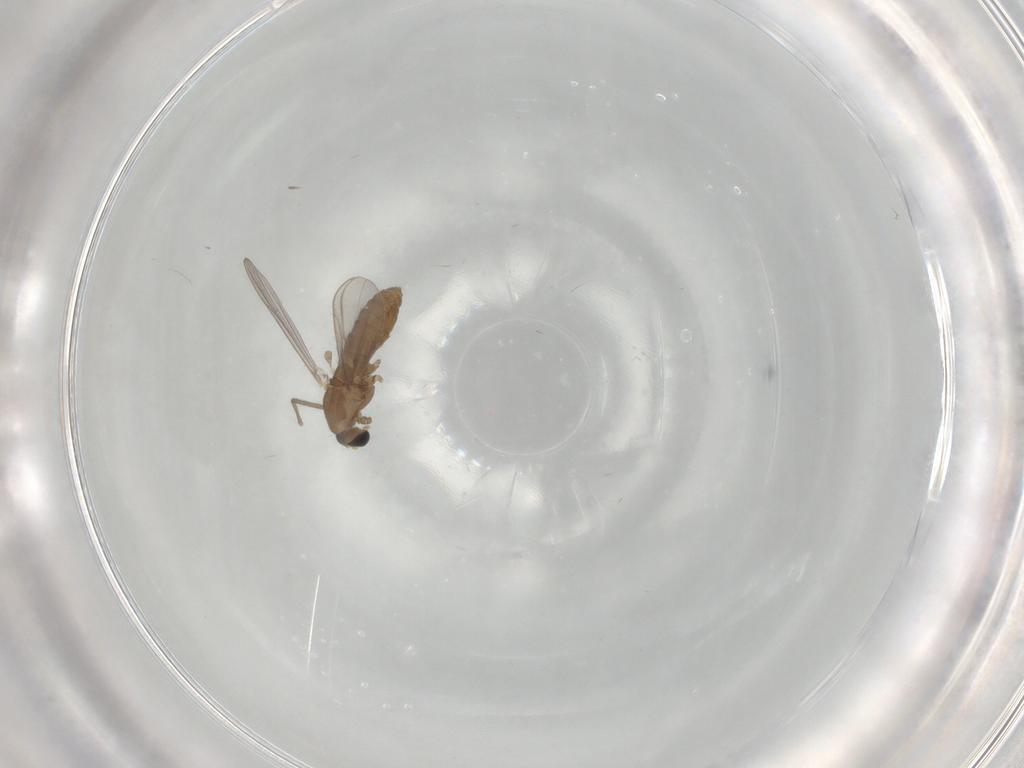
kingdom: Animalia
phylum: Arthropoda
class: Insecta
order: Diptera
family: Chironomidae
